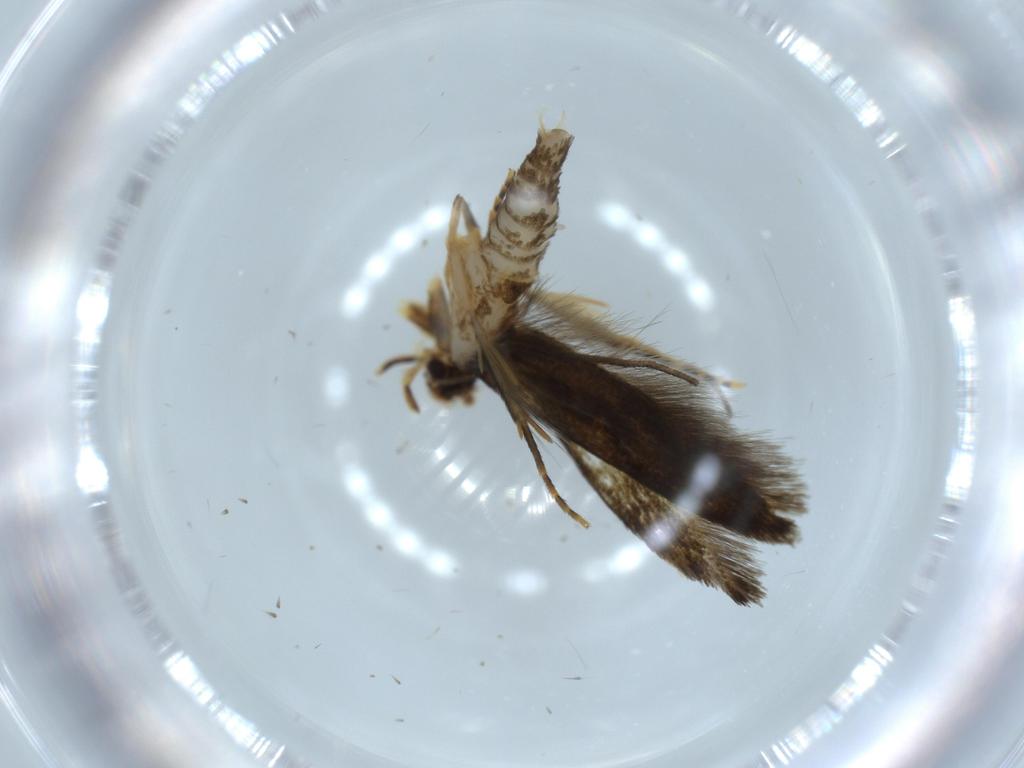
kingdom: Animalia
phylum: Arthropoda
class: Insecta
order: Lepidoptera
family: Tineidae
